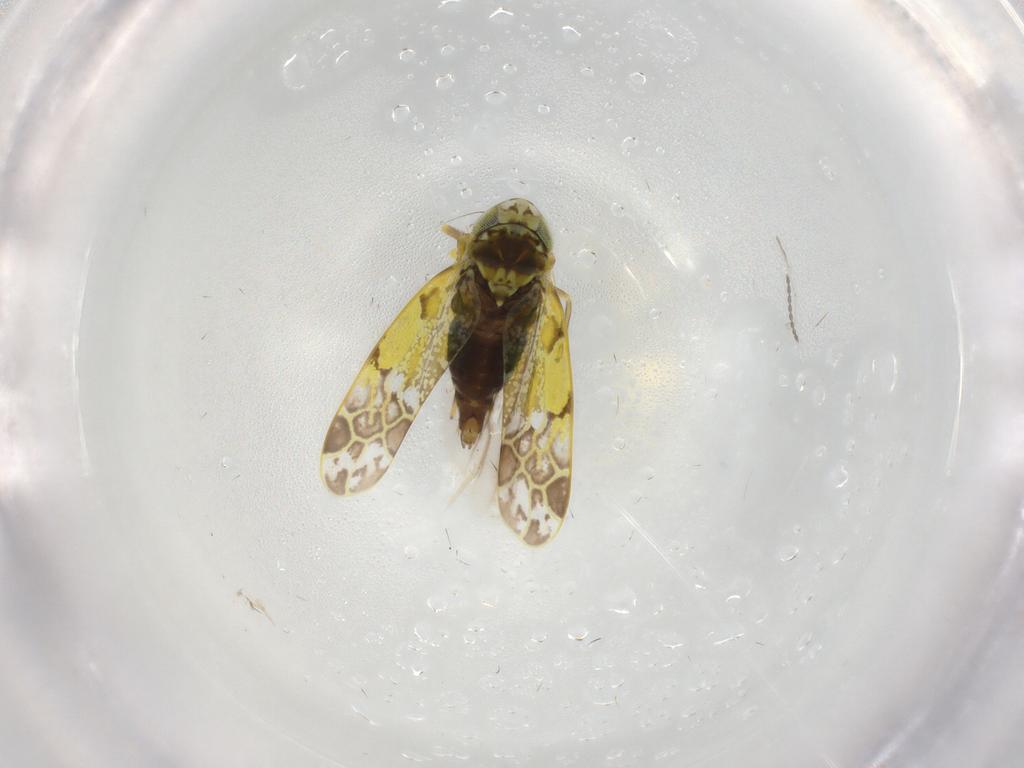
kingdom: Animalia
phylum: Arthropoda
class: Insecta
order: Hemiptera
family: Cicadellidae
